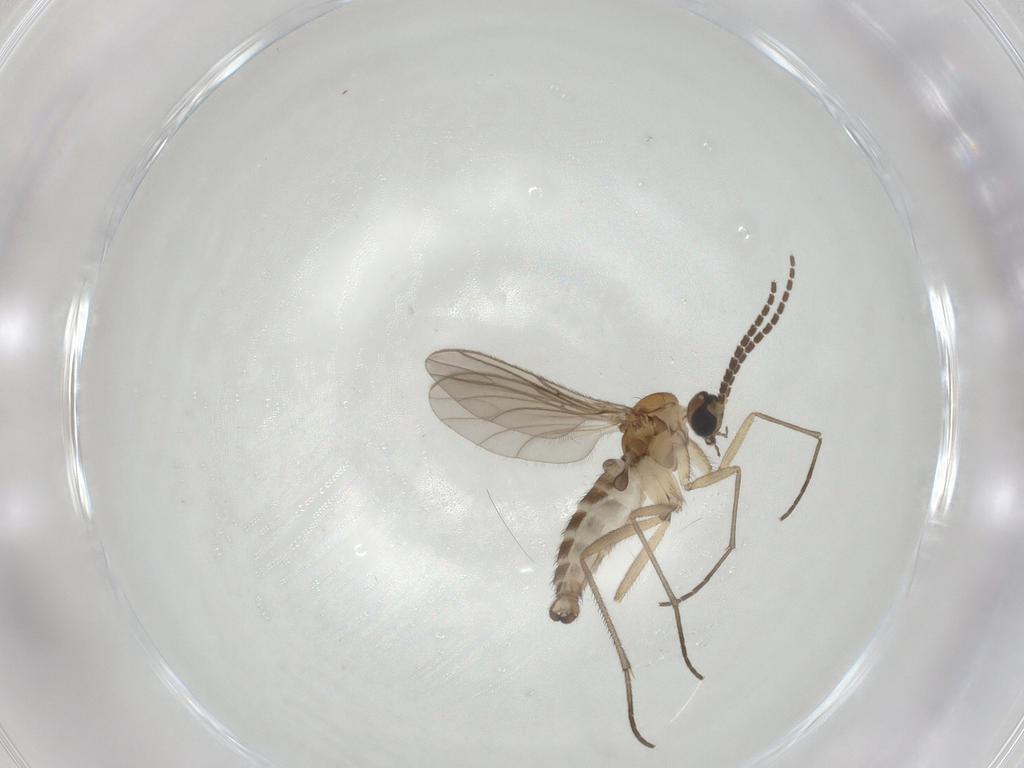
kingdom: Animalia
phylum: Arthropoda
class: Insecta
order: Diptera
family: Sciaridae
